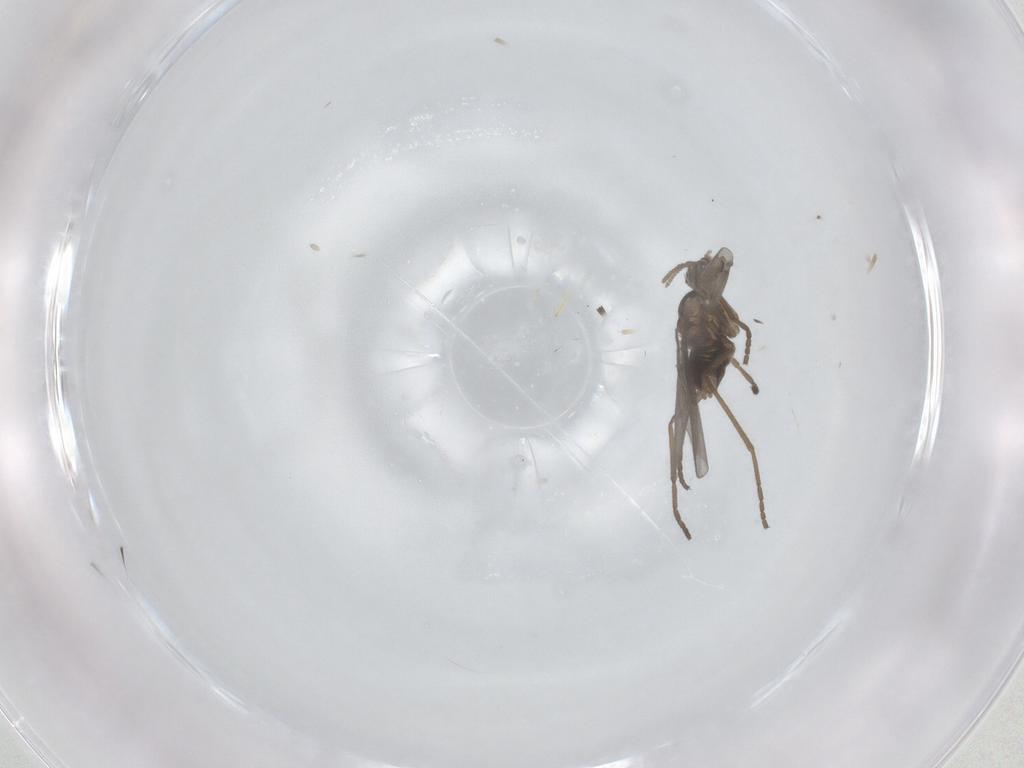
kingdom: Animalia
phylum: Arthropoda
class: Insecta
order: Diptera
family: Cecidomyiidae
